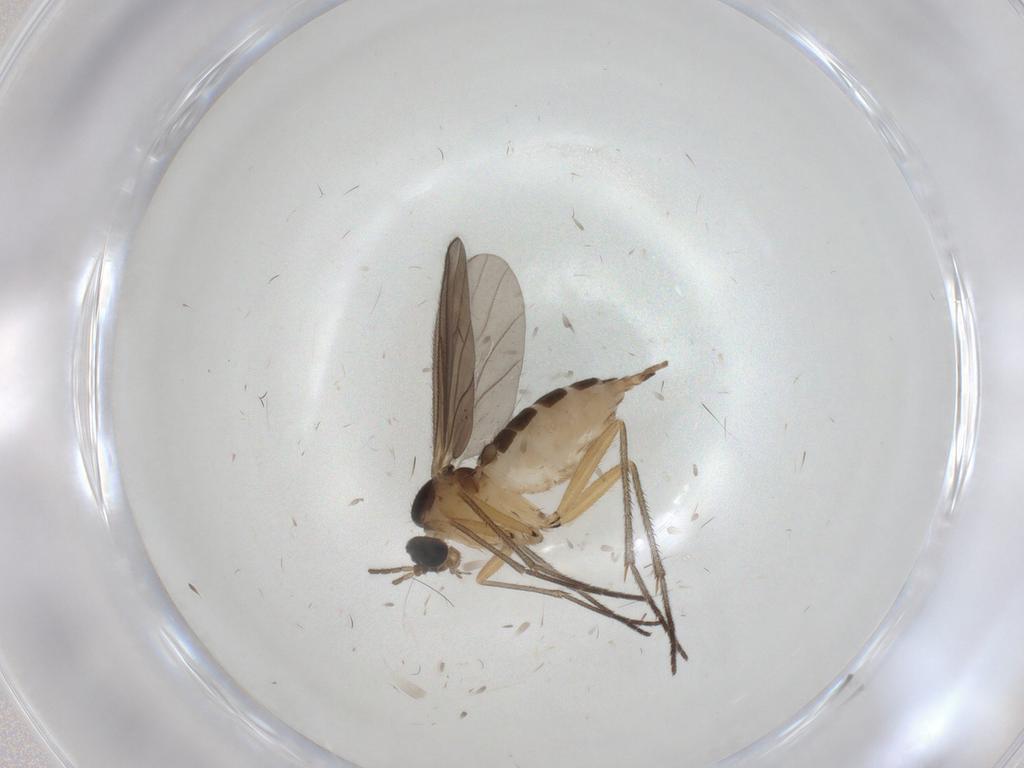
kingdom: Animalia
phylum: Arthropoda
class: Insecta
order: Diptera
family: Sciaridae
